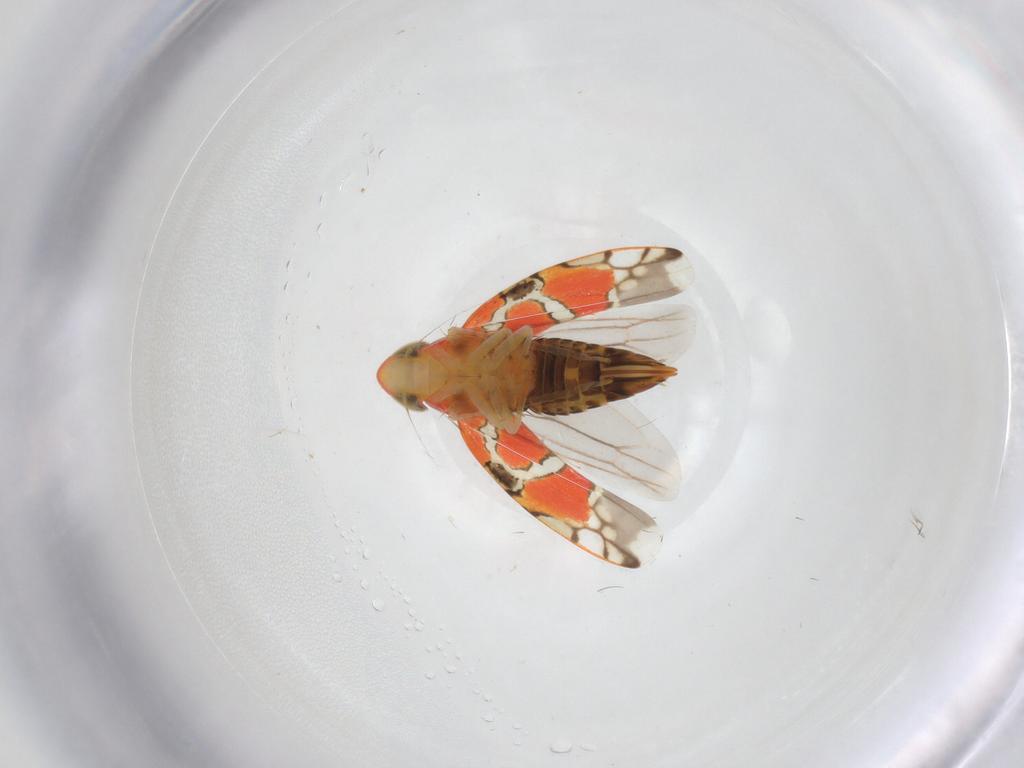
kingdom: Animalia
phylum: Arthropoda
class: Insecta
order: Hemiptera
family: Cicadellidae
